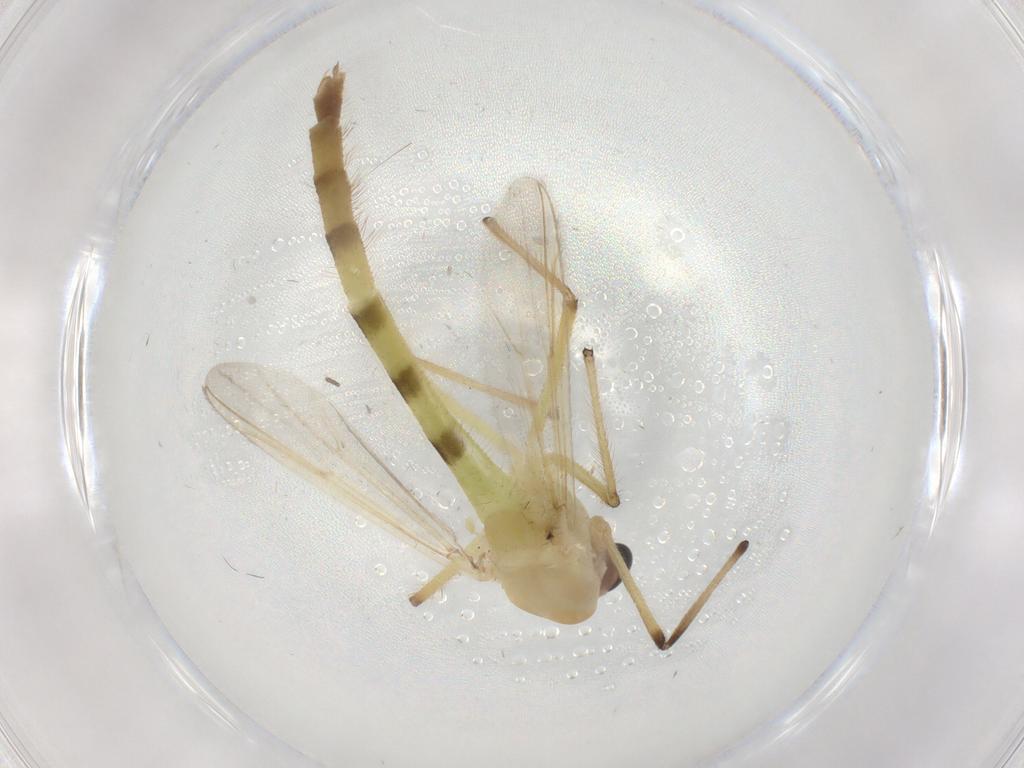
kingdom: Animalia
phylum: Arthropoda
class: Insecta
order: Diptera
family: Chironomidae
